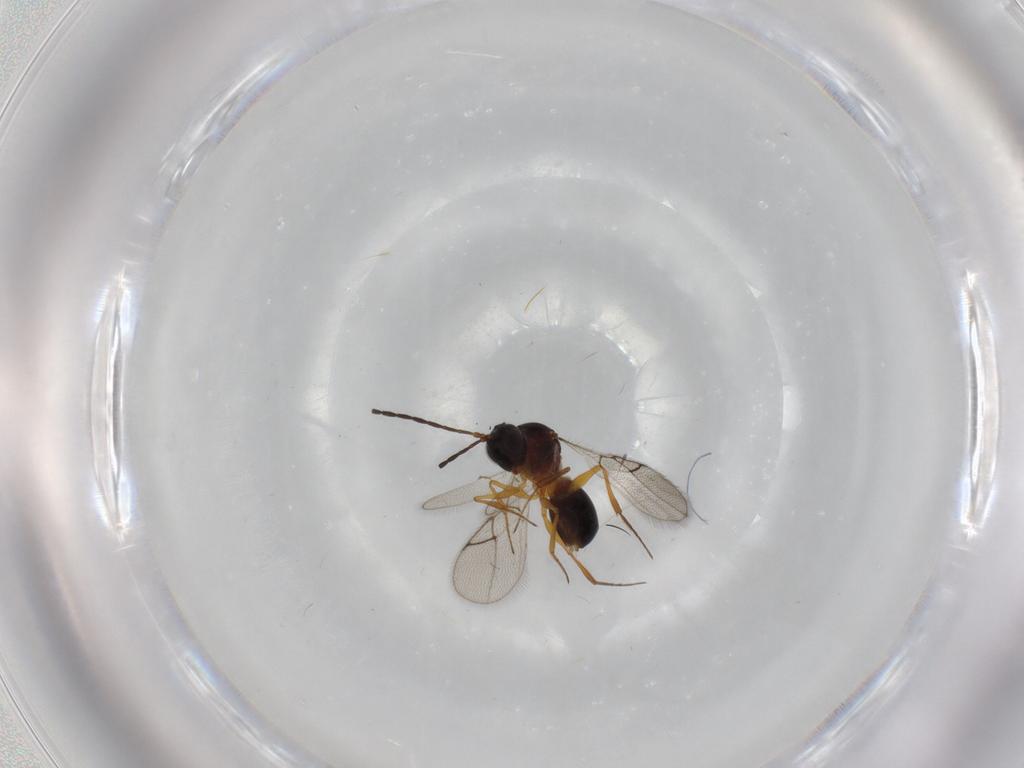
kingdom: Animalia
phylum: Arthropoda
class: Insecta
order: Hymenoptera
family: Figitidae
